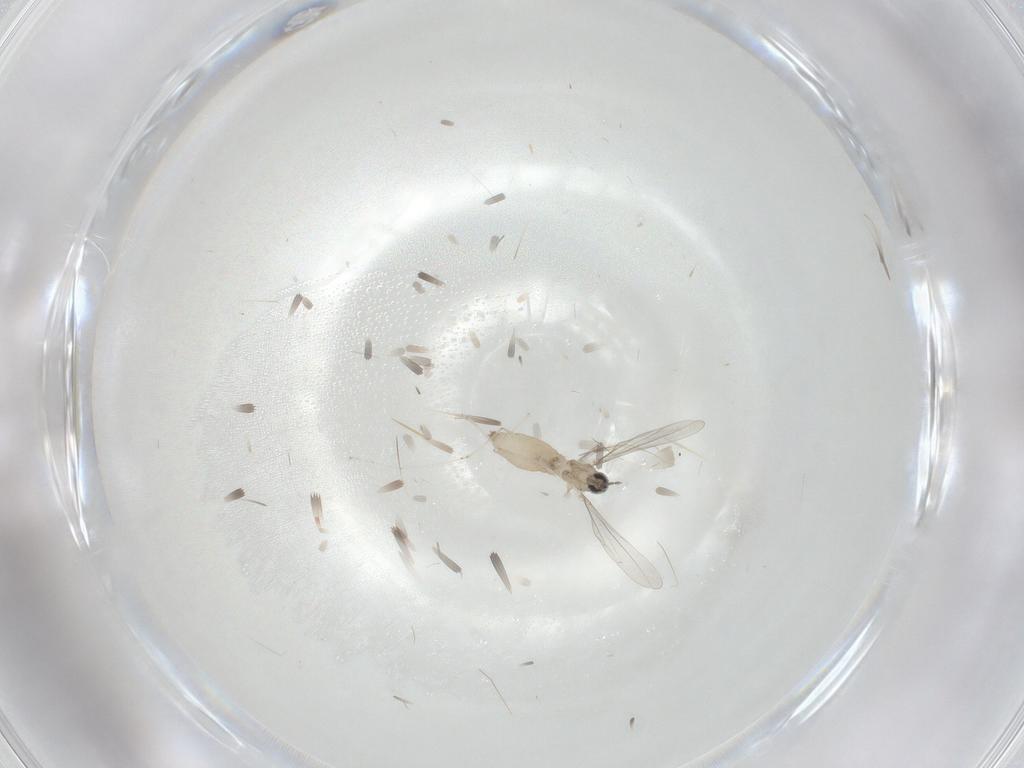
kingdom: Animalia
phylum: Arthropoda
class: Insecta
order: Diptera
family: Cecidomyiidae
